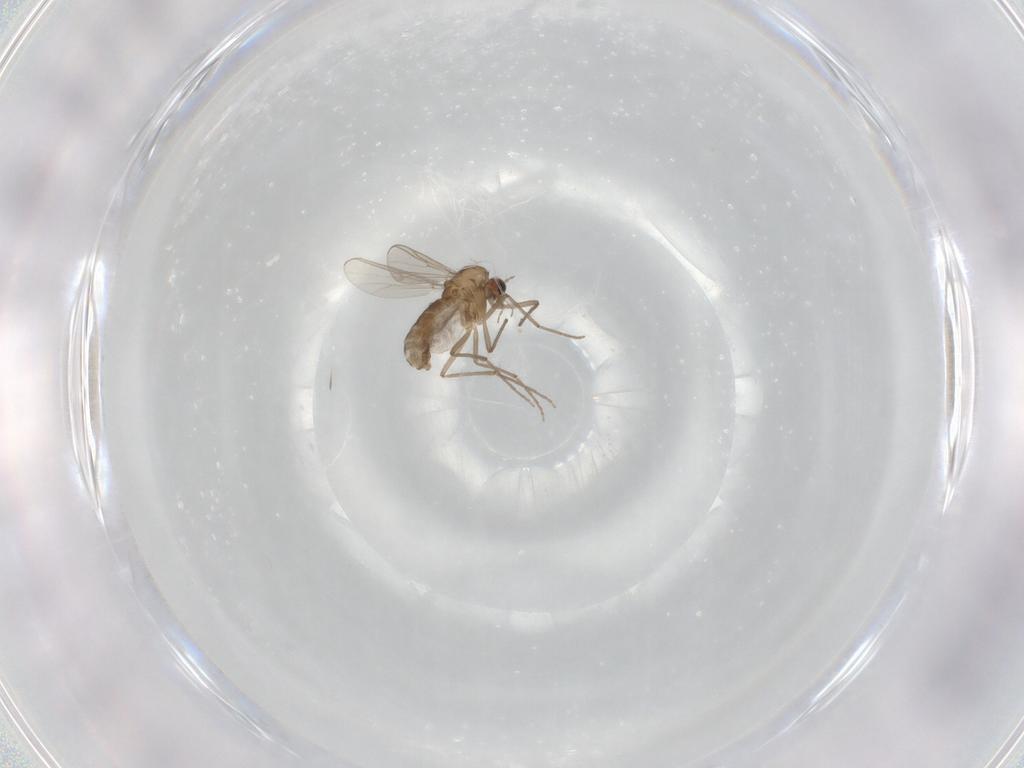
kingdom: Animalia
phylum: Arthropoda
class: Insecta
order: Diptera
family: Chironomidae
